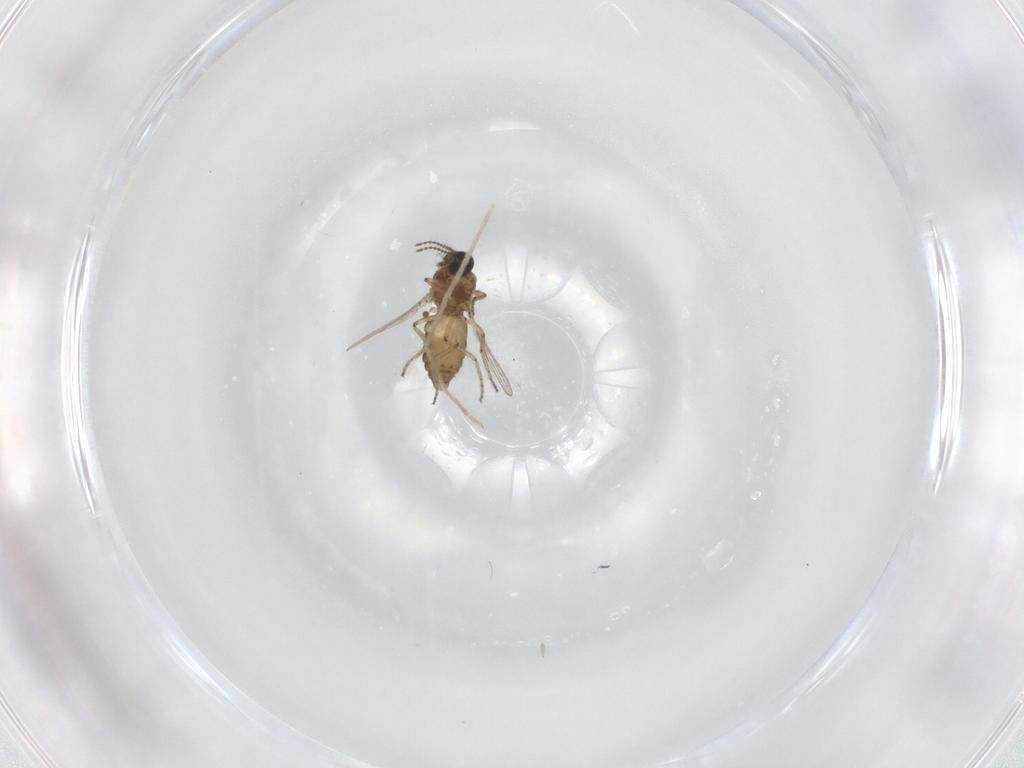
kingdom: Animalia
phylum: Arthropoda
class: Insecta
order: Diptera
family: Ceratopogonidae
